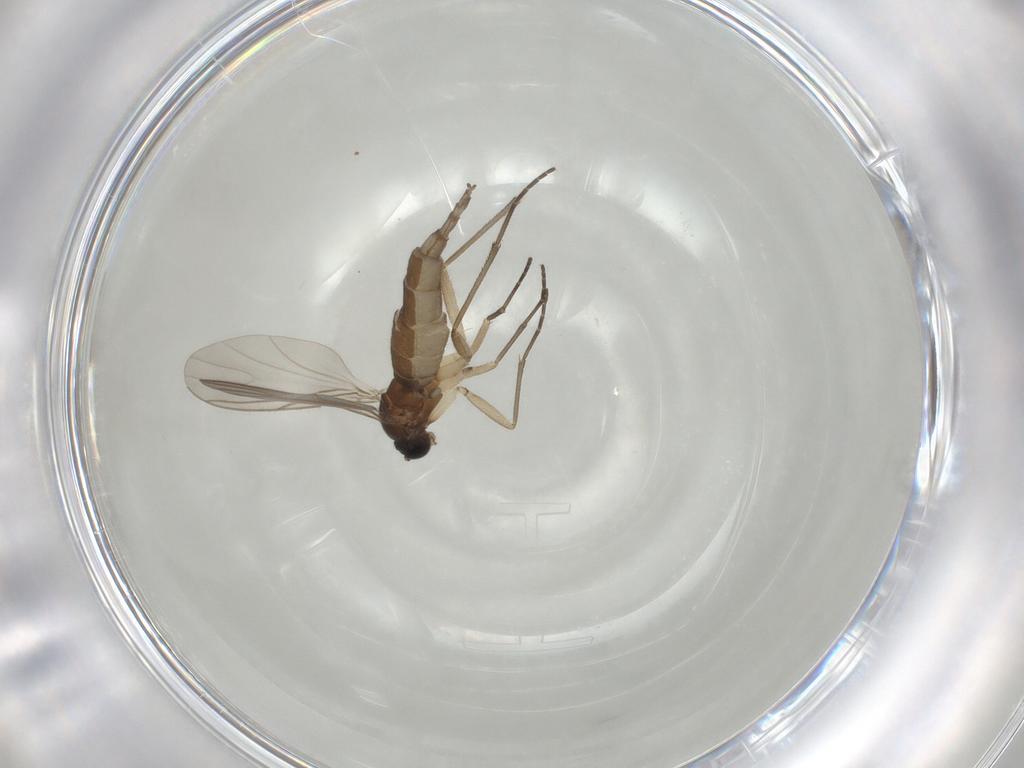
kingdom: Animalia
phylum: Arthropoda
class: Insecta
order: Diptera
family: Sciaridae
